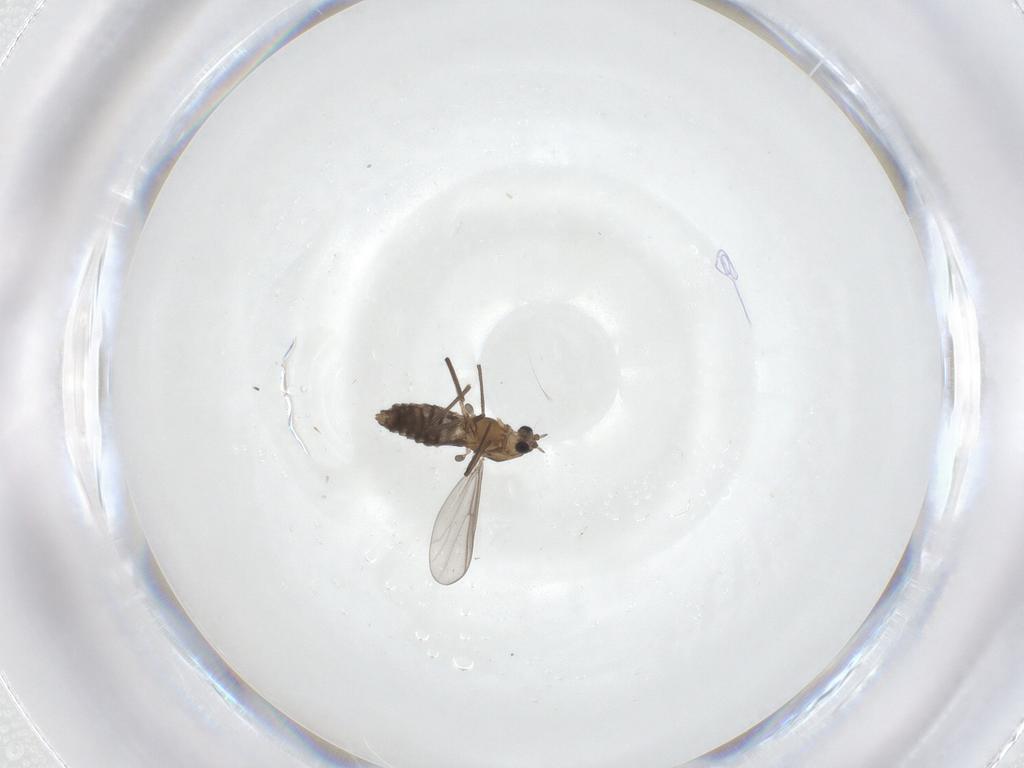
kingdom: Animalia
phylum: Arthropoda
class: Insecta
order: Diptera
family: Chironomidae
